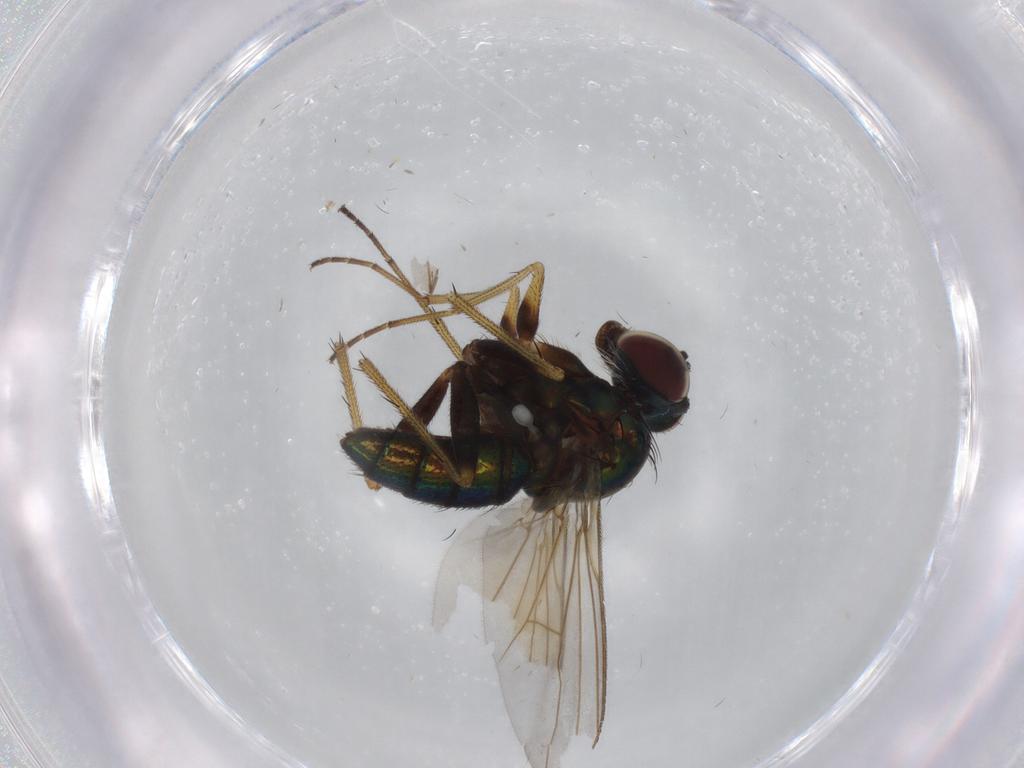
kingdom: Animalia
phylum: Arthropoda
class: Insecta
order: Diptera
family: Dolichopodidae
